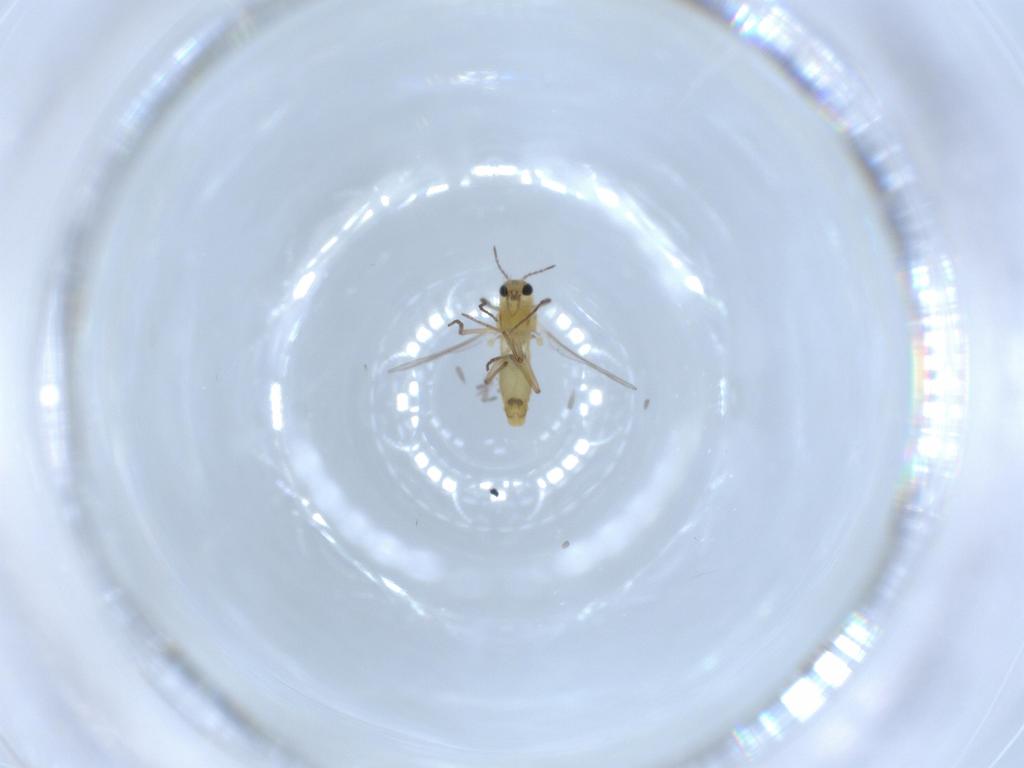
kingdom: Animalia
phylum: Arthropoda
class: Insecta
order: Diptera
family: Chironomidae
